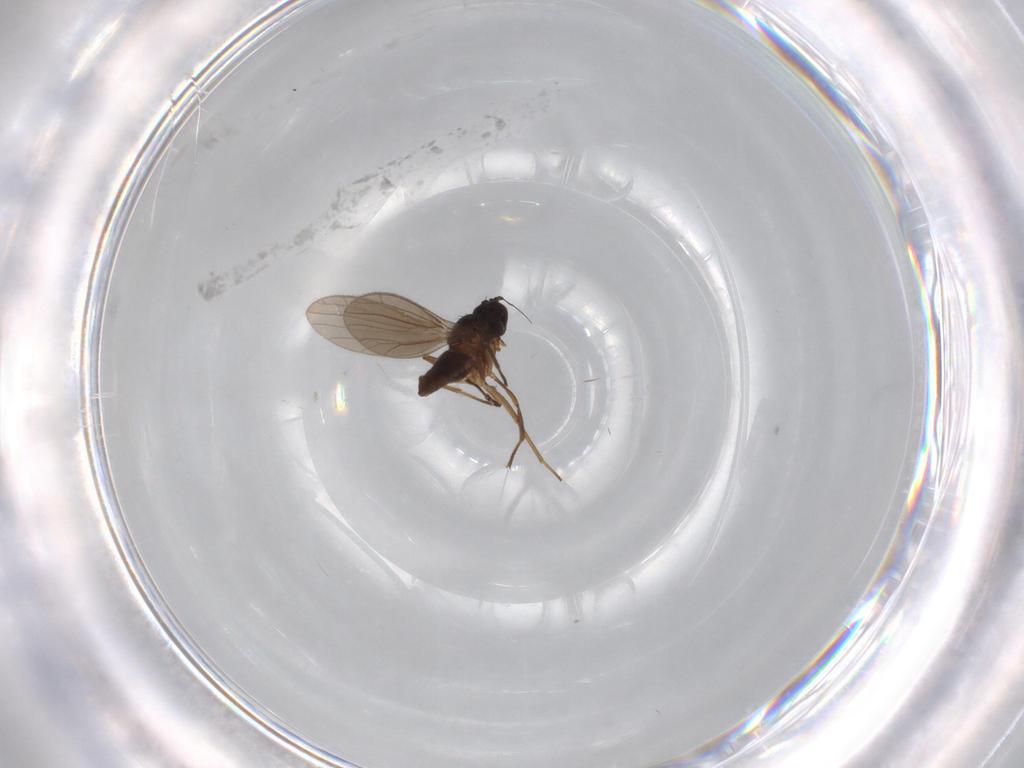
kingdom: Animalia
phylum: Arthropoda
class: Insecta
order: Diptera
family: Empididae
